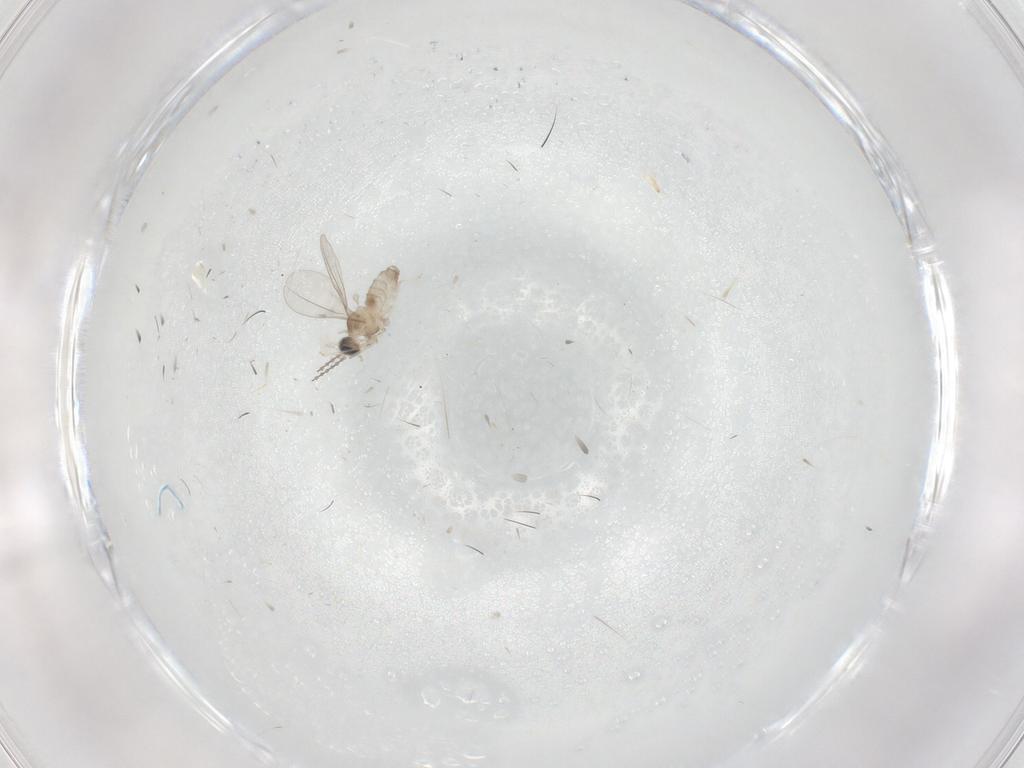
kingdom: Animalia
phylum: Arthropoda
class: Insecta
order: Diptera
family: Cecidomyiidae
